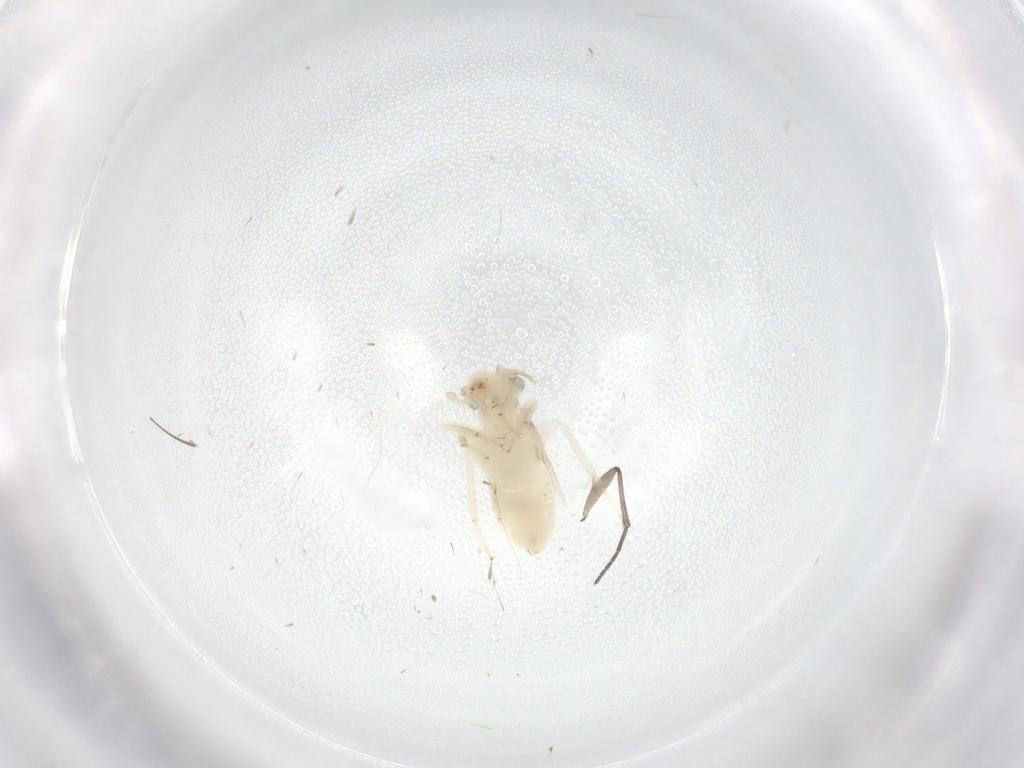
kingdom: Animalia
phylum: Arthropoda
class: Insecta
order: Psocodea
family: Lepidopsocidae
